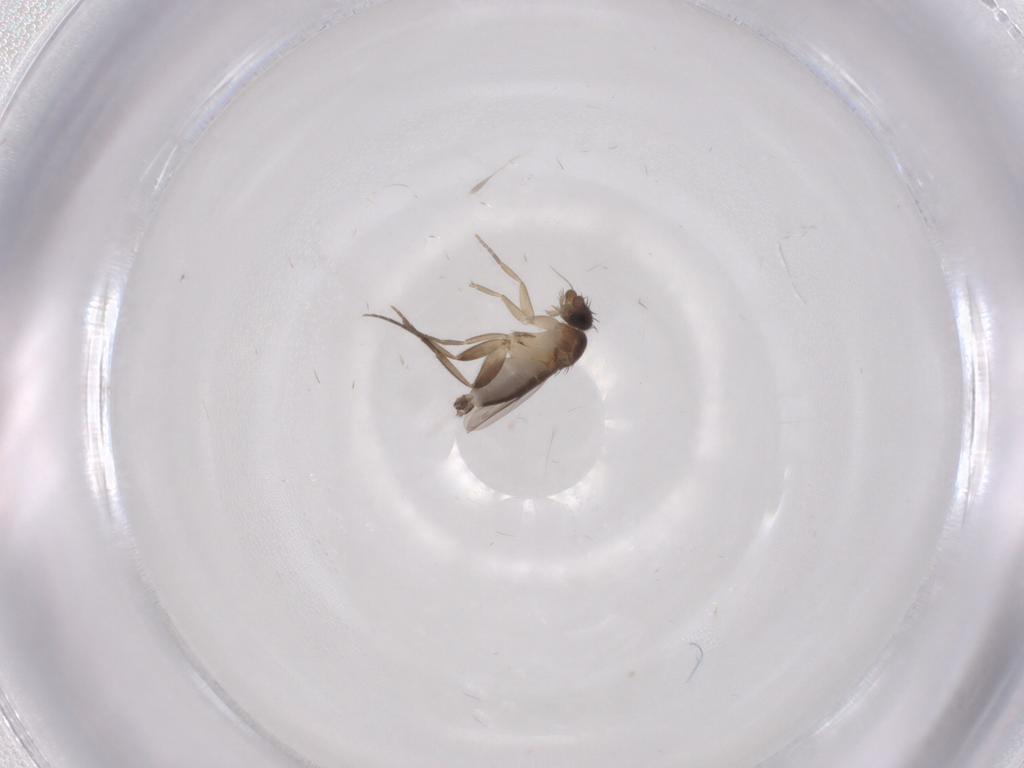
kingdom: Animalia
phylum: Arthropoda
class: Insecta
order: Diptera
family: Phoridae
